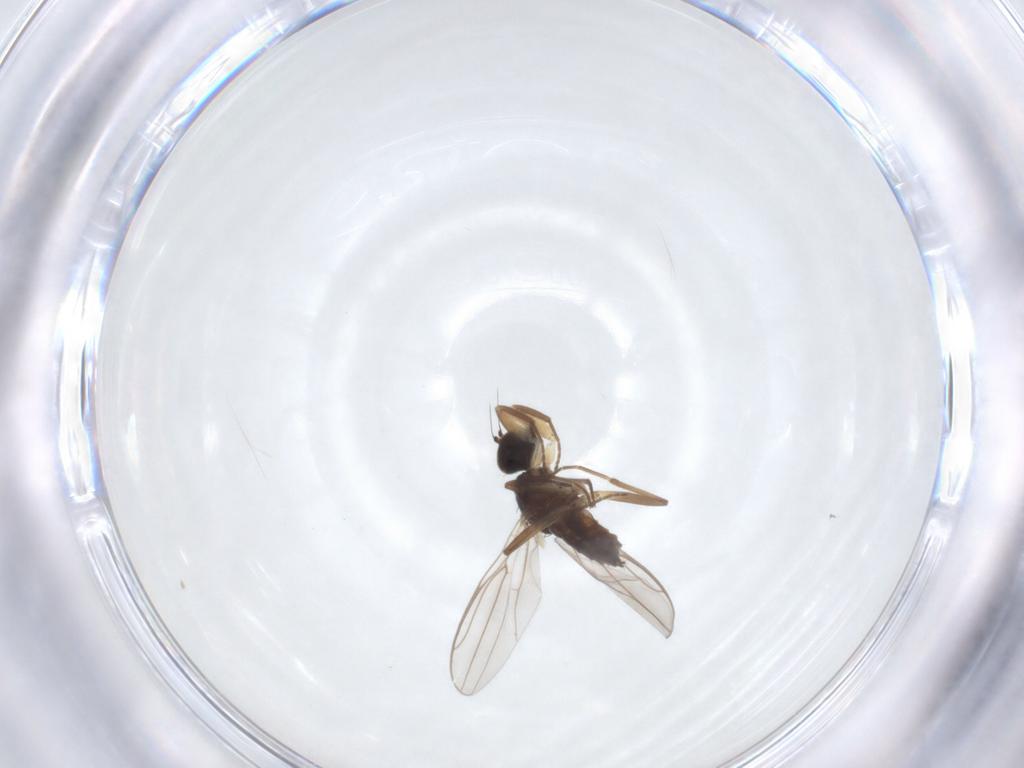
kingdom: Animalia
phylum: Arthropoda
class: Insecta
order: Diptera
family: Hybotidae
